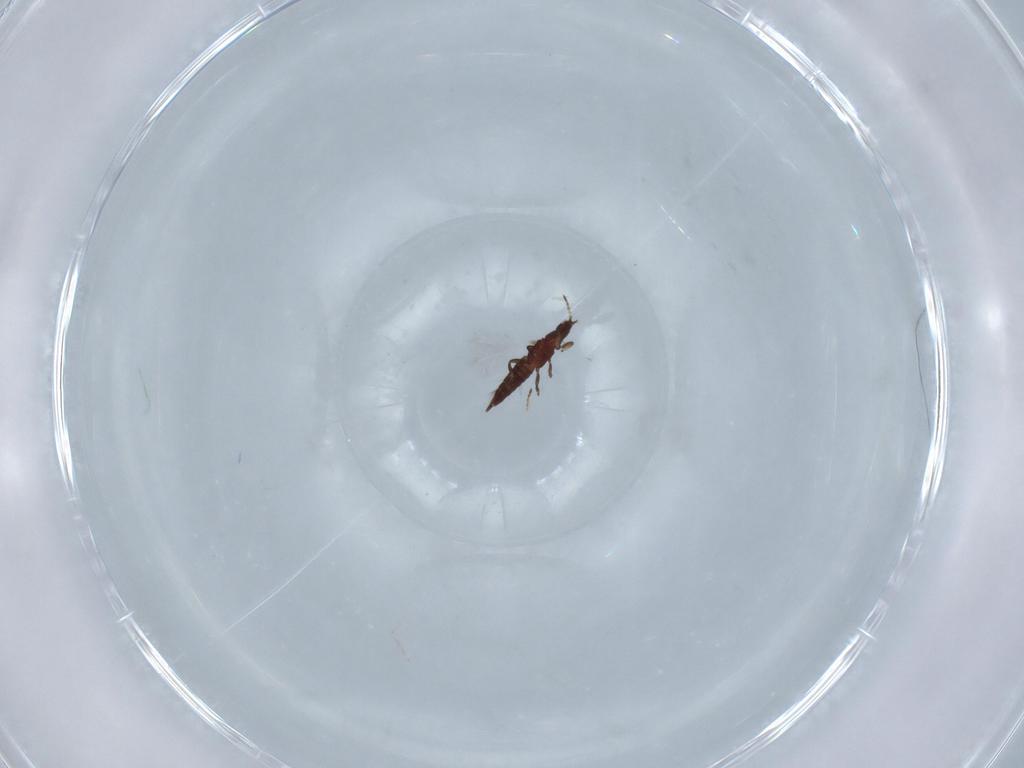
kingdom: Animalia
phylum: Arthropoda
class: Insecta
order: Thysanoptera
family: Phlaeothripidae
